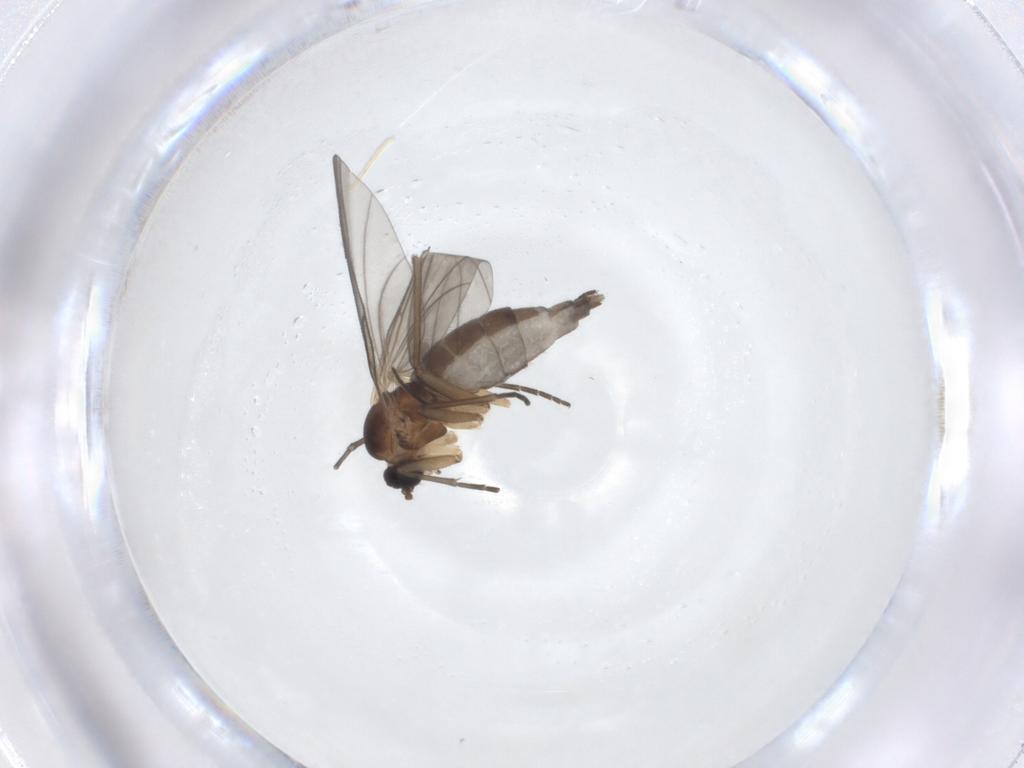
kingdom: Animalia
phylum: Arthropoda
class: Insecta
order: Diptera
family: Sciaridae
